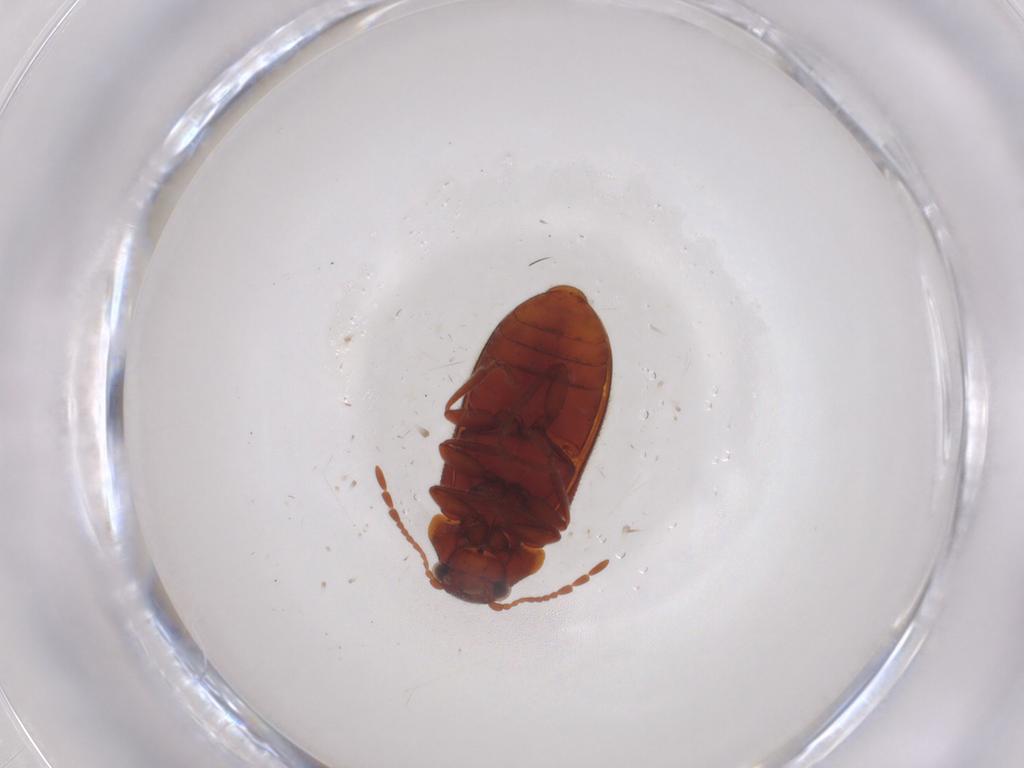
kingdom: Animalia
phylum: Arthropoda
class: Insecta
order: Coleoptera
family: Ptinidae
